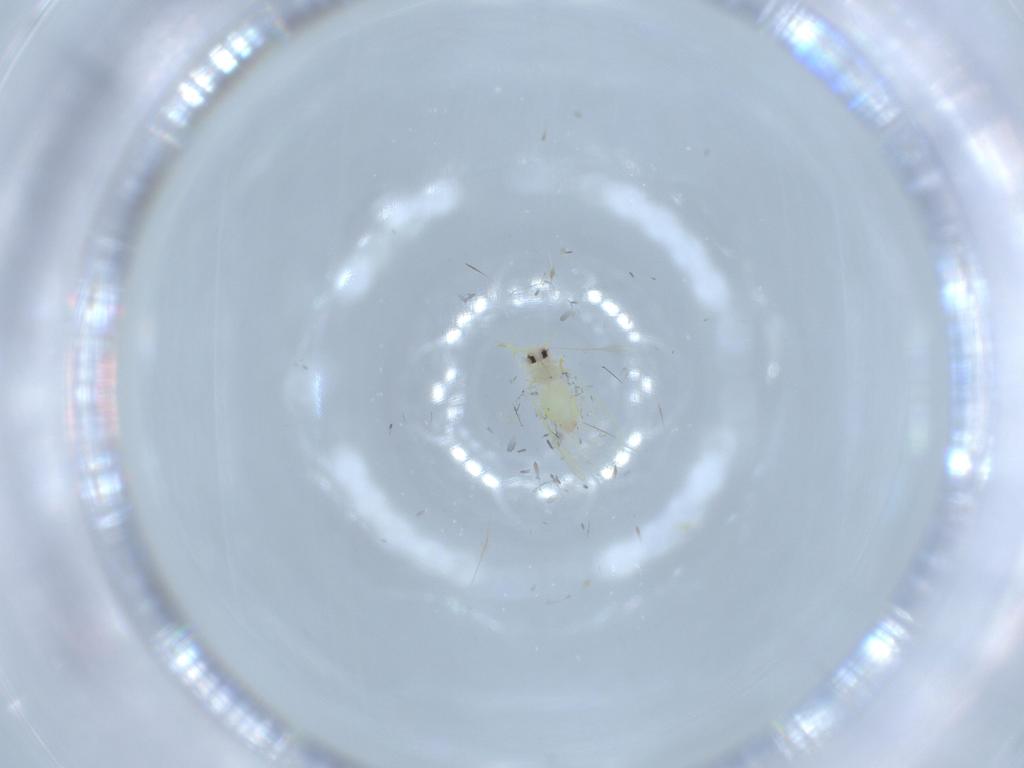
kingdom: Animalia
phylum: Arthropoda
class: Insecta
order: Hemiptera
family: Aleyrodidae
